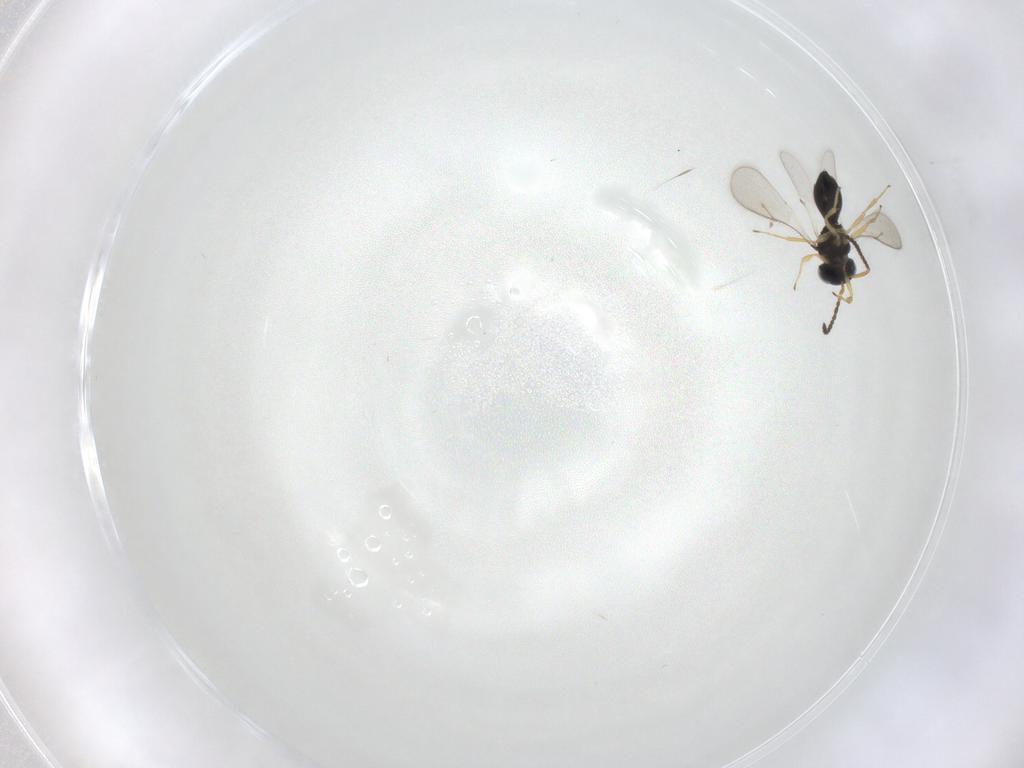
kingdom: Animalia
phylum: Arthropoda
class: Insecta
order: Hymenoptera
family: Scelionidae
